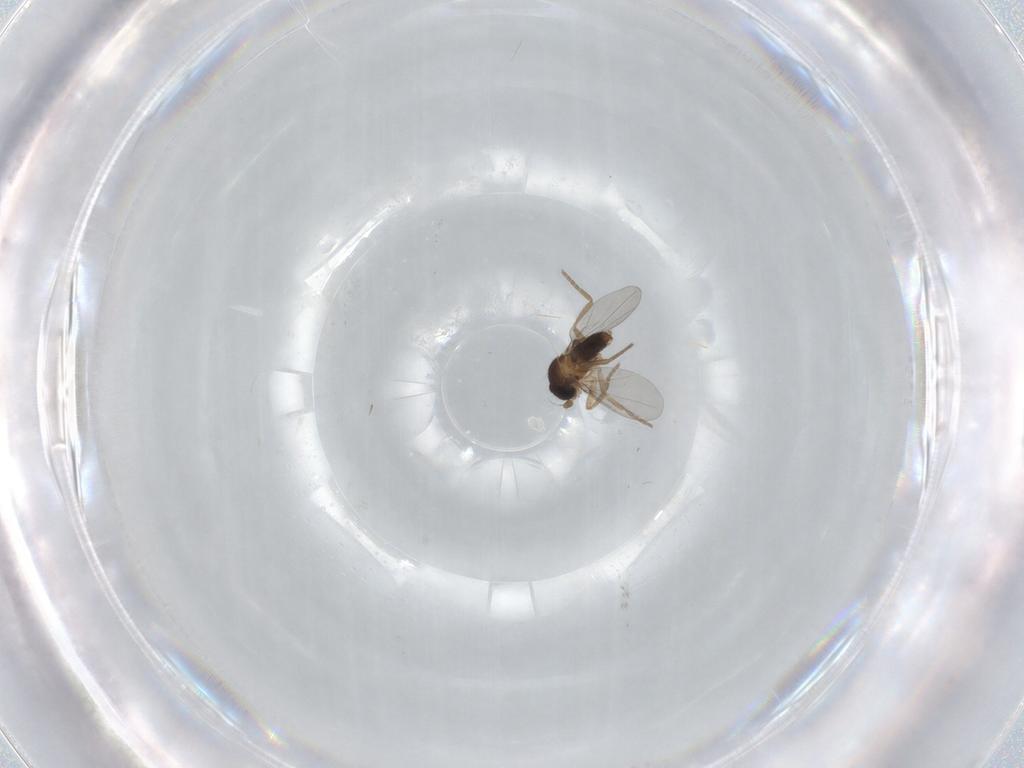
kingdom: Animalia
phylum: Arthropoda
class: Insecta
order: Diptera
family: Phoridae
